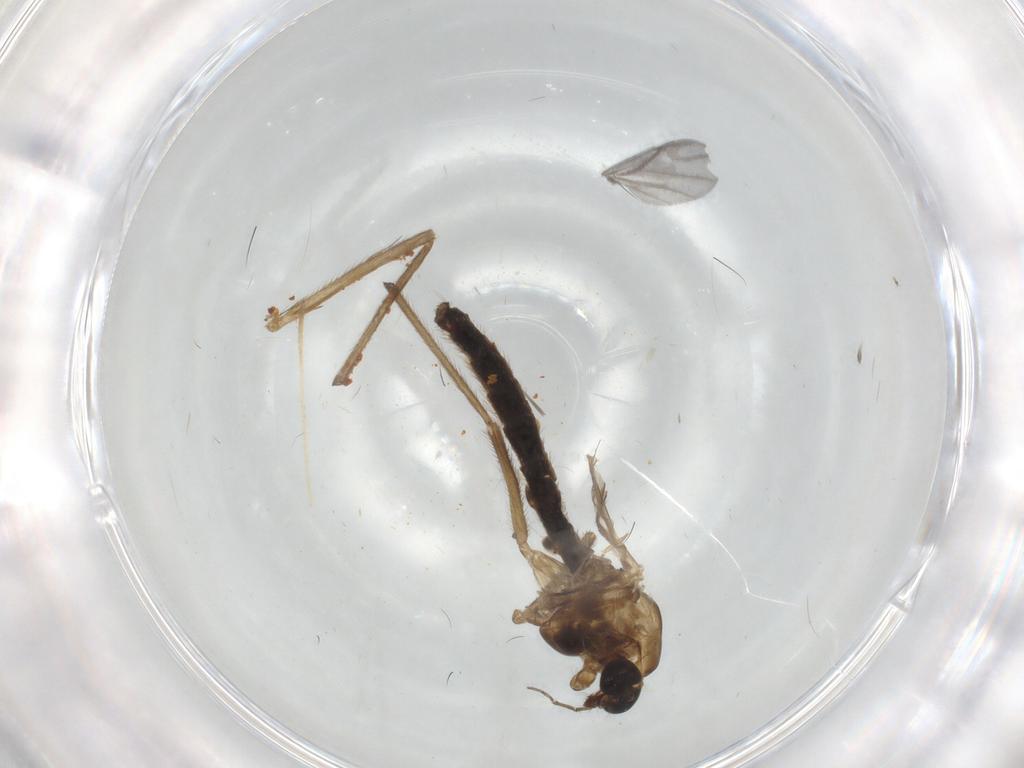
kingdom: Animalia
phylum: Arthropoda
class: Insecta
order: Diptera
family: Chironomidae
